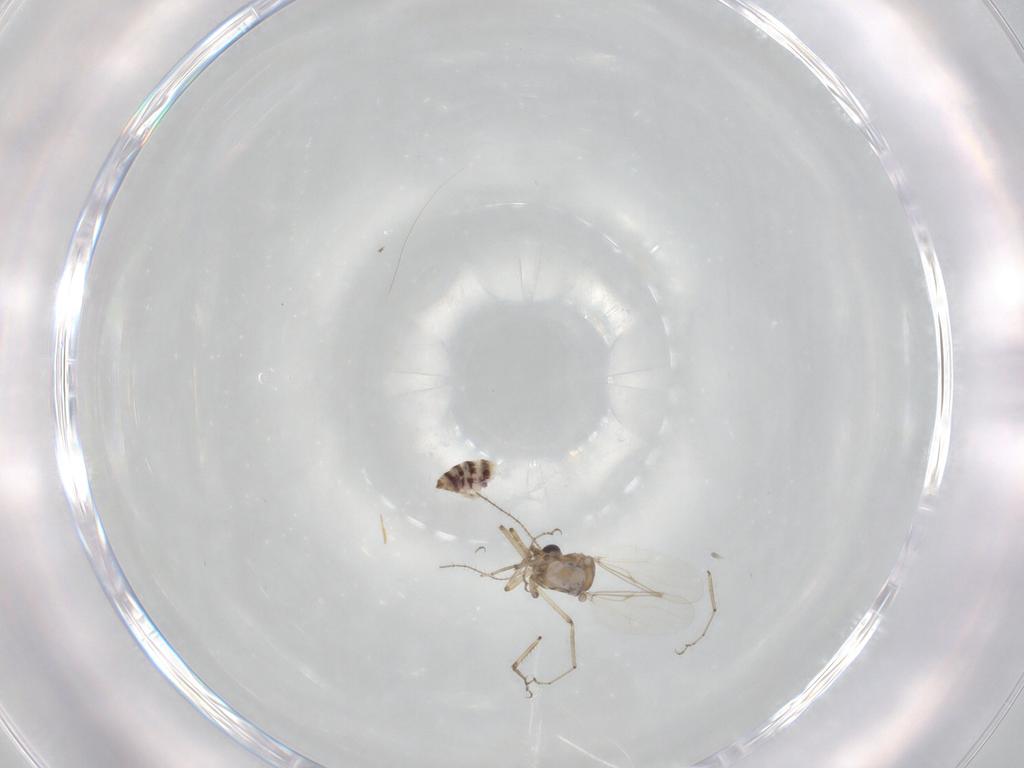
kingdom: Animalia
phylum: Arthropoda
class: Insecta
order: Diptera
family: Ceratopogonidae
